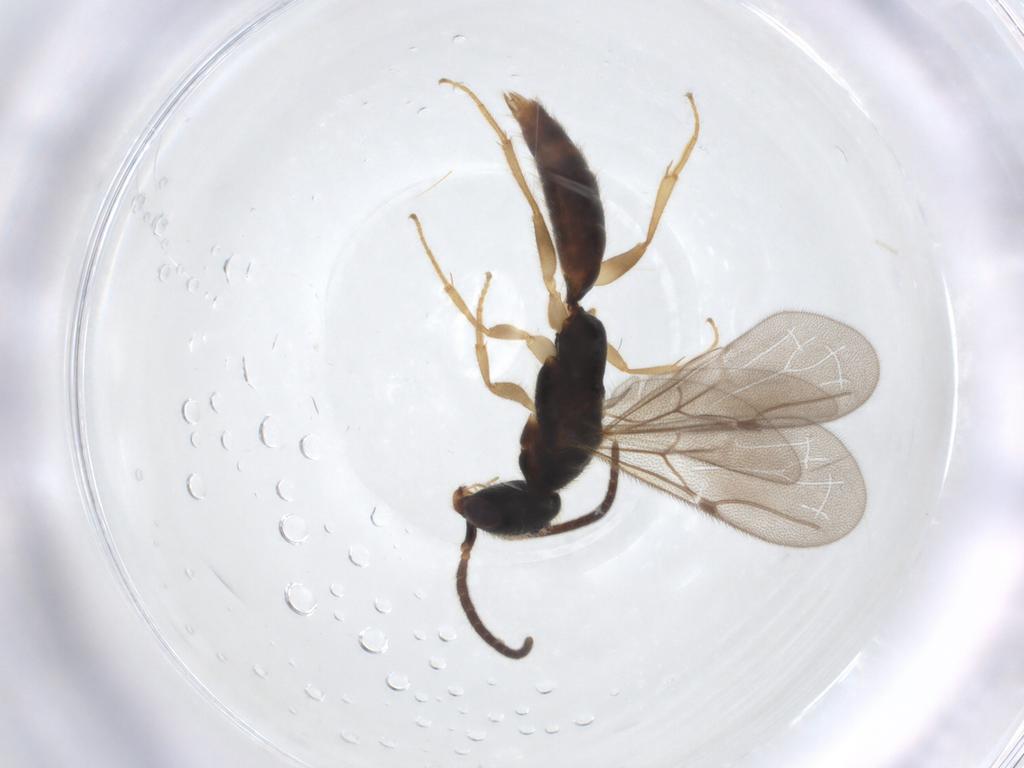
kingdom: Animalia
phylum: Arthropoda
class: Insecta
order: Hymenoptera
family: Bethylidae
